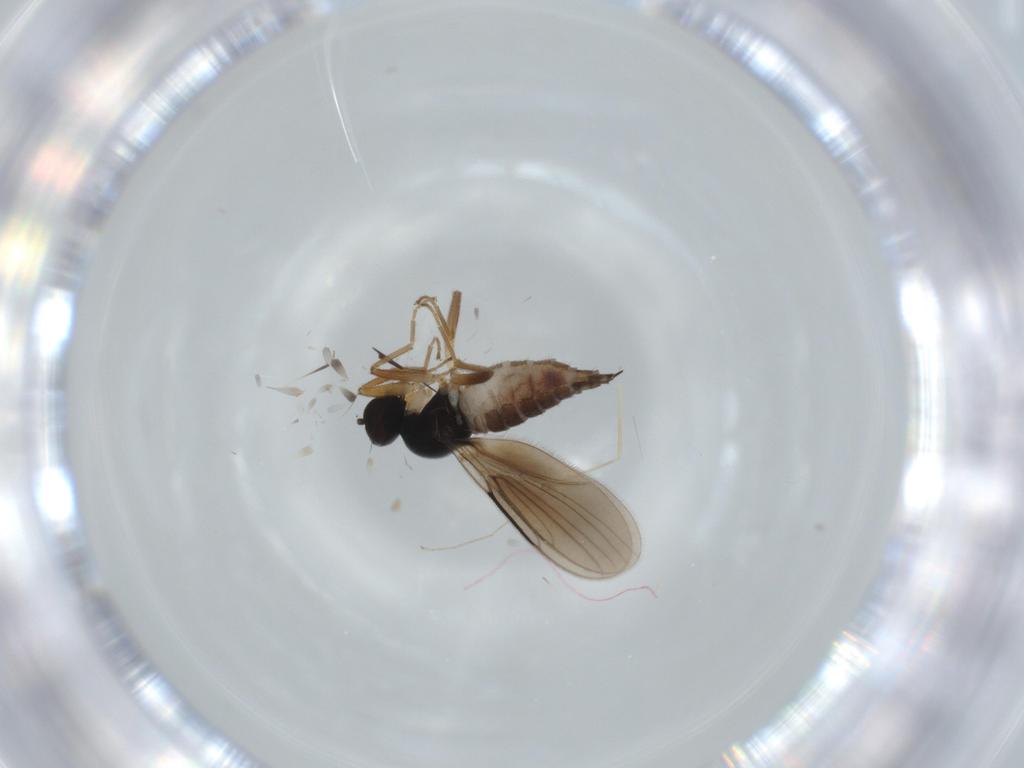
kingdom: Animalia
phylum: Arthropoda
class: Insecta
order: Diptera
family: Hybotidae
